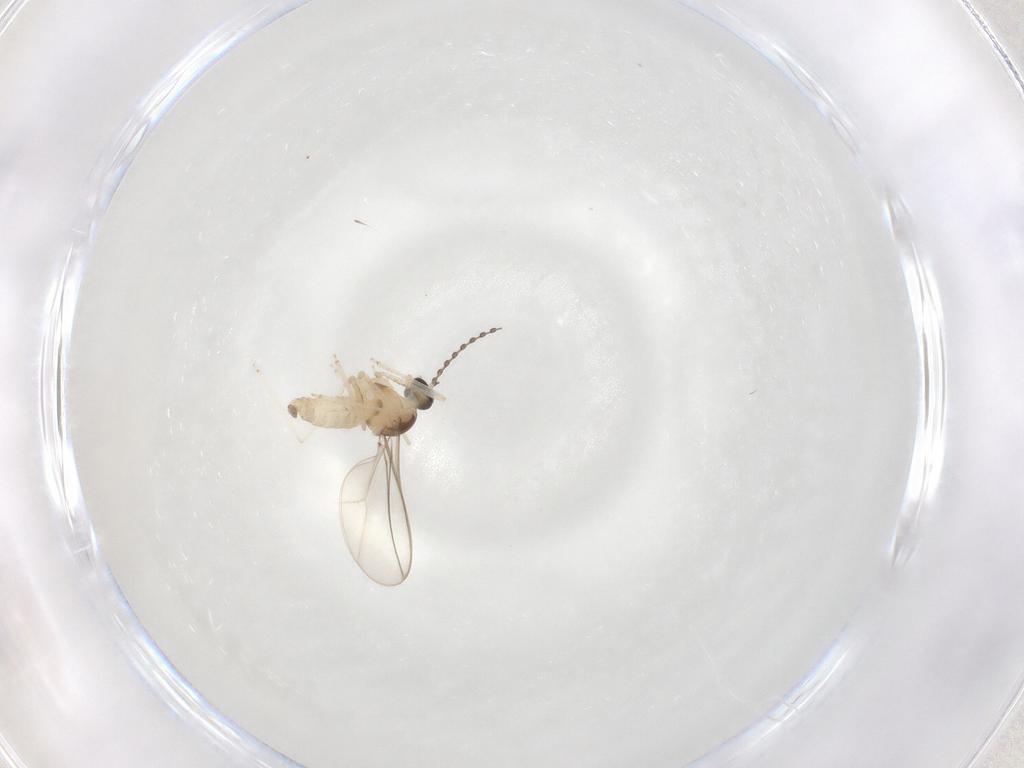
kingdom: Animalia
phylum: Arthropoda
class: Insecta
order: Diptera
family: Cecidomyiidae
